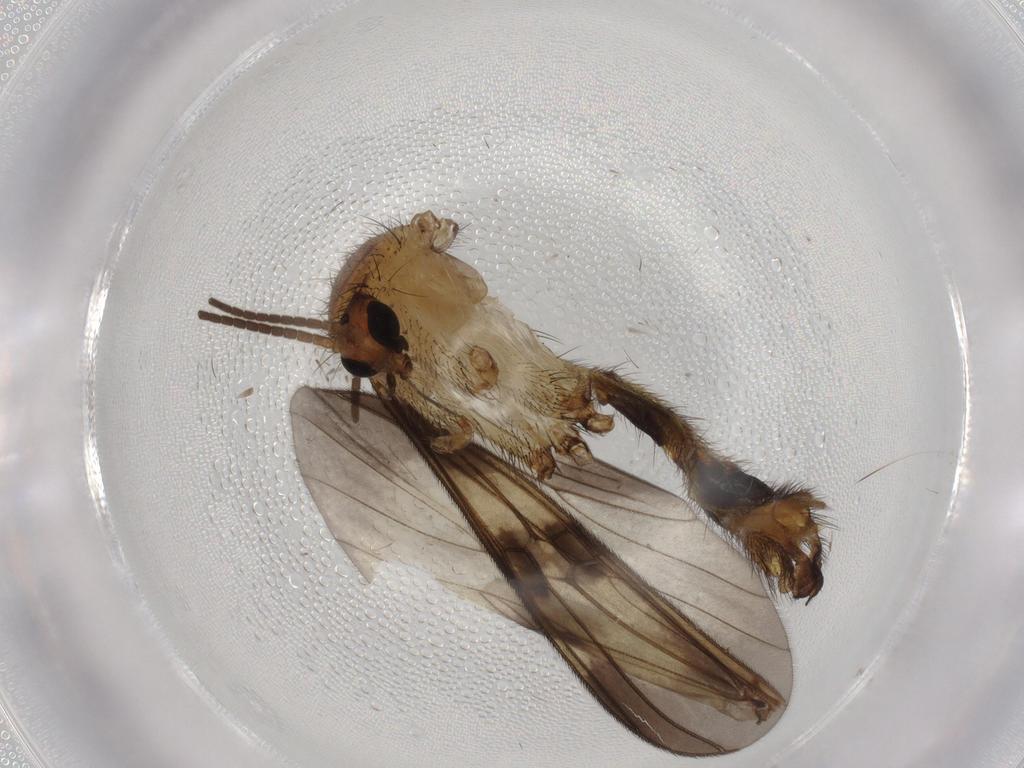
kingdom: Animalia
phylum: Arthropoda
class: Insecta
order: Diptera
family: Mycetophilidae
